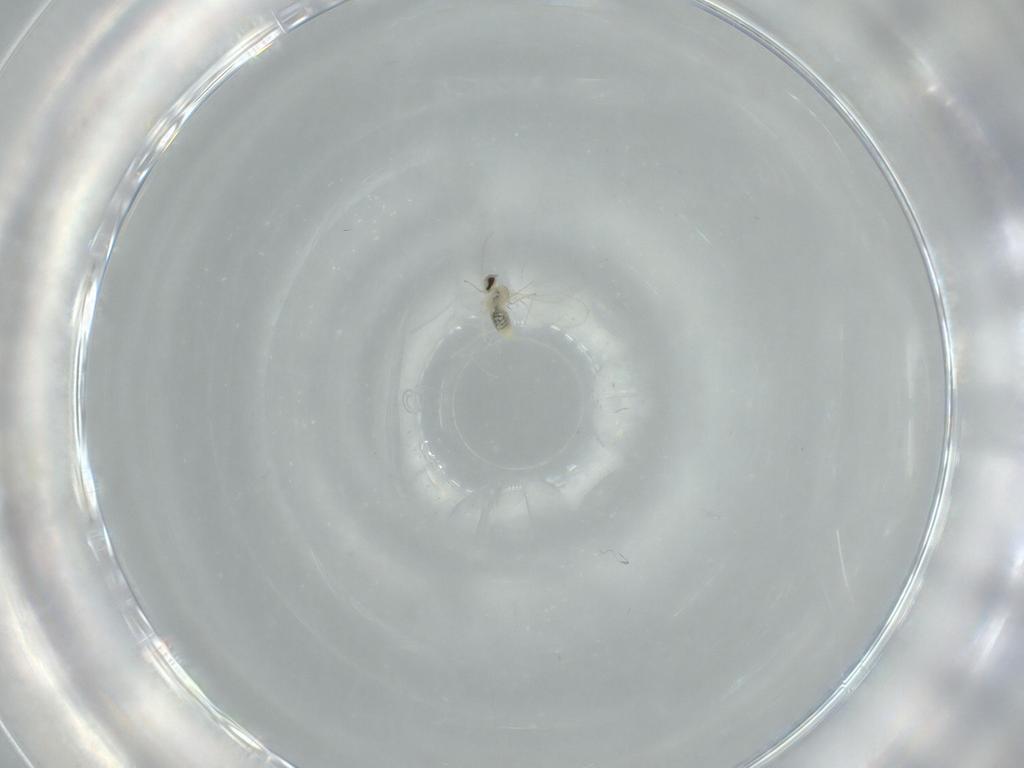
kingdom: Animalia
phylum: Arthropoda
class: Insecta
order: Diptera
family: Cecidomyiidae
